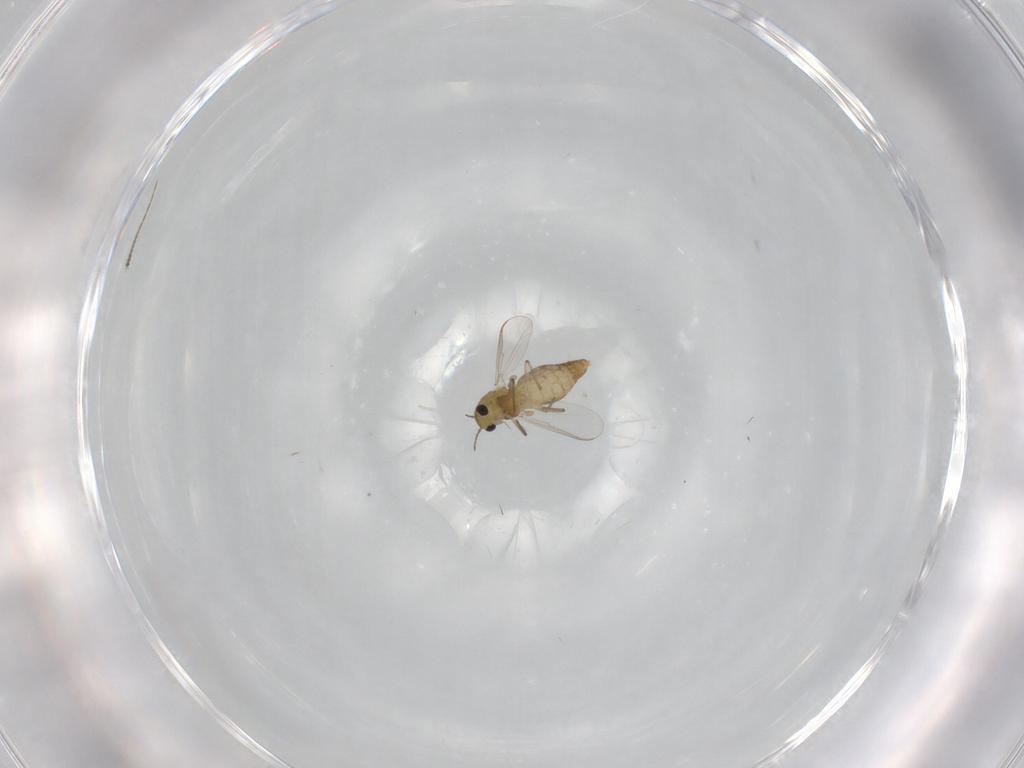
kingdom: Animalia
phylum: Arthropoda
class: Insecta
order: Diptera
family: Chironomidae
